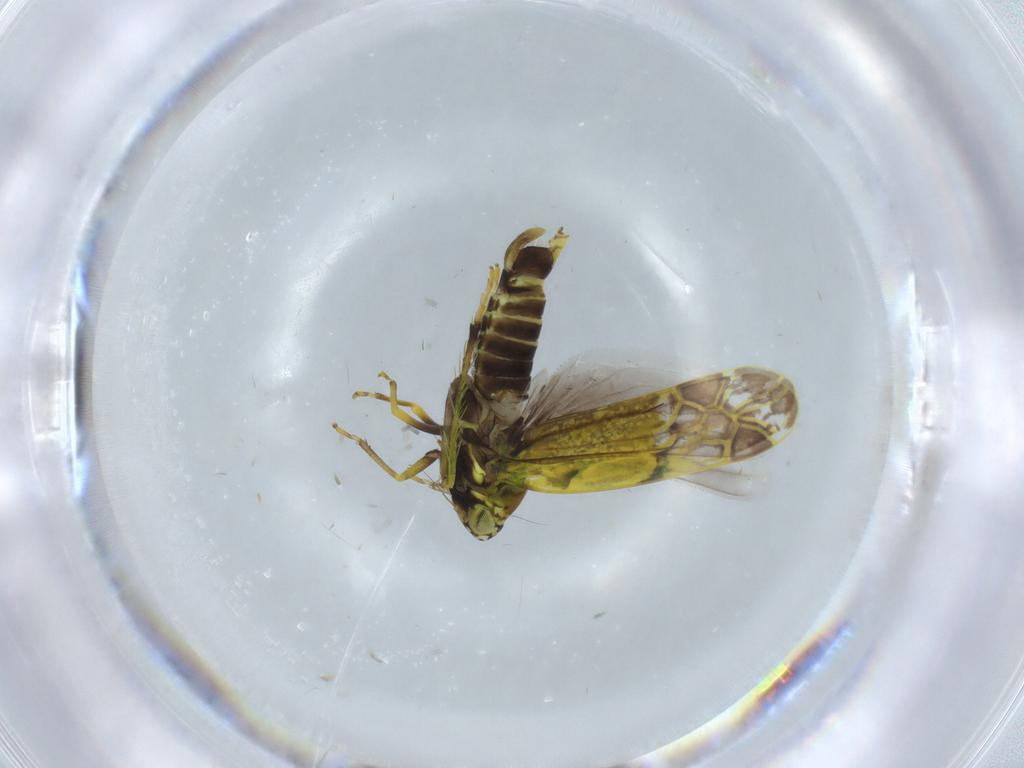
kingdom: Animalia
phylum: Arthropoda
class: Insecta
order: Hemiptera
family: Cicadellidae
